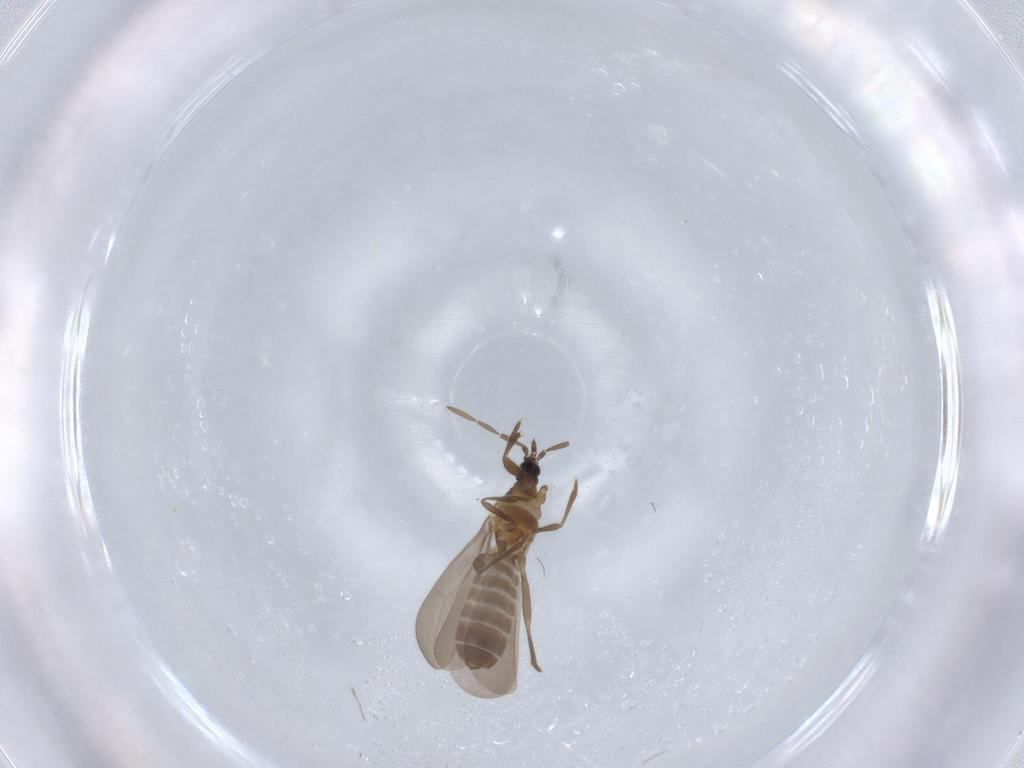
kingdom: Animalia
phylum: Arthropoda
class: Insecta
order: Hemiptera
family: Enicocephalidae
